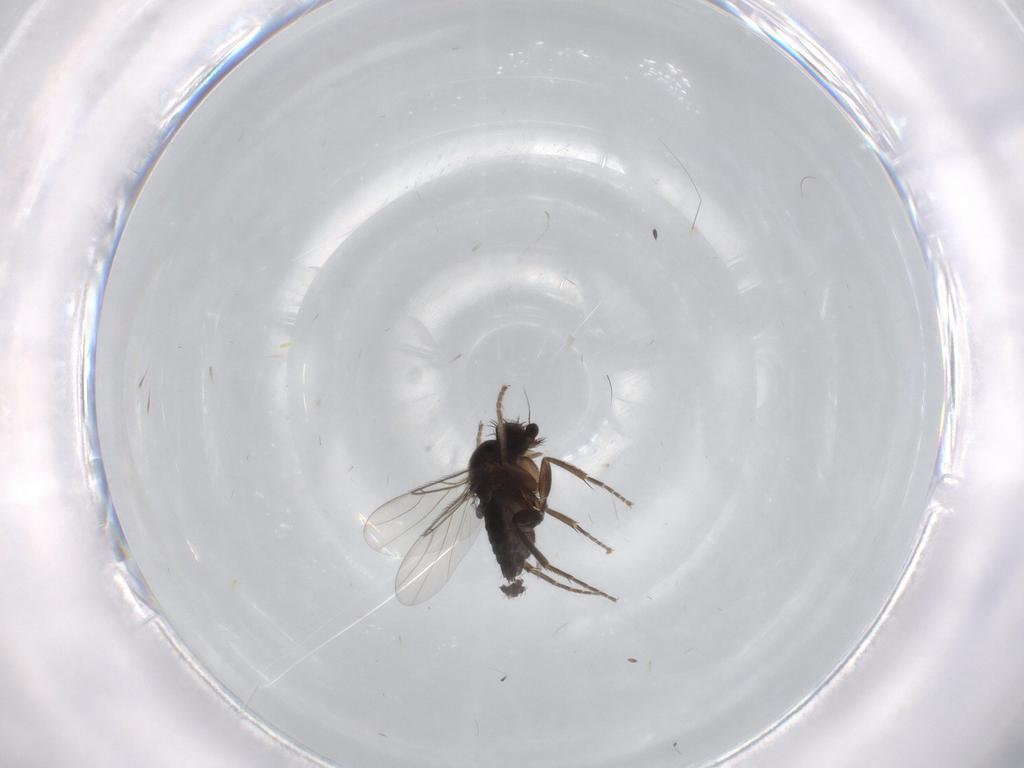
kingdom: Animalia
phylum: Arthropoda
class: Insecta
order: Diptera
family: Phoridae
